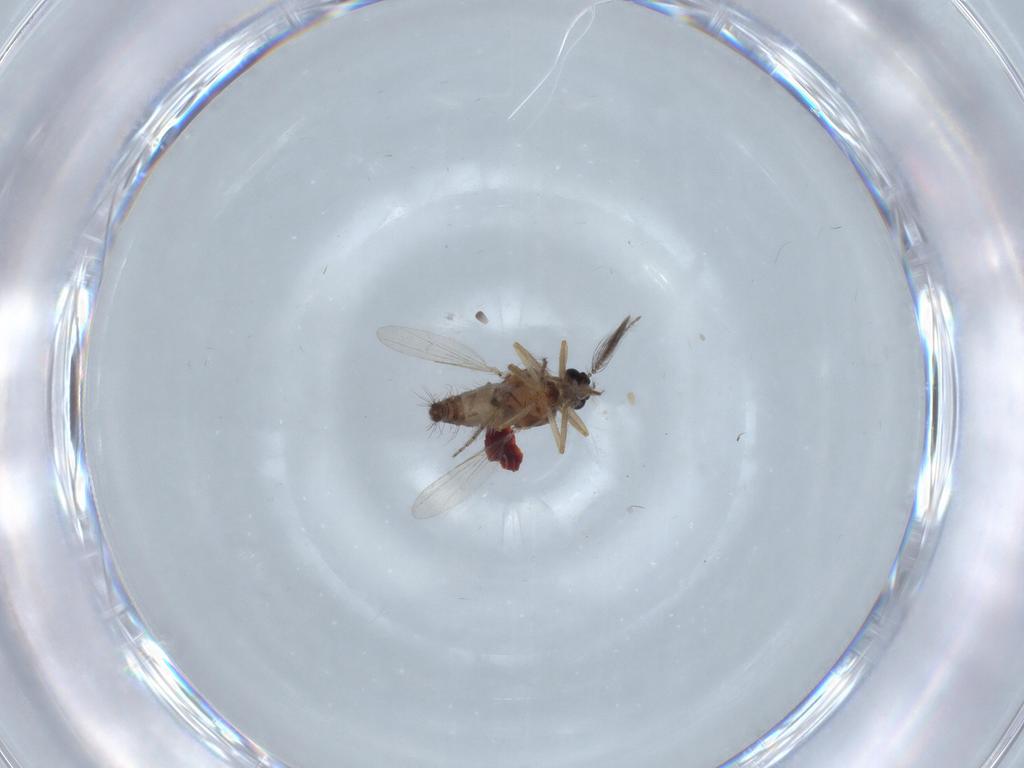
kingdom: Animalia
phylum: Arthropoda
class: Insecta
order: Diptera
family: Ceratopogonidae
